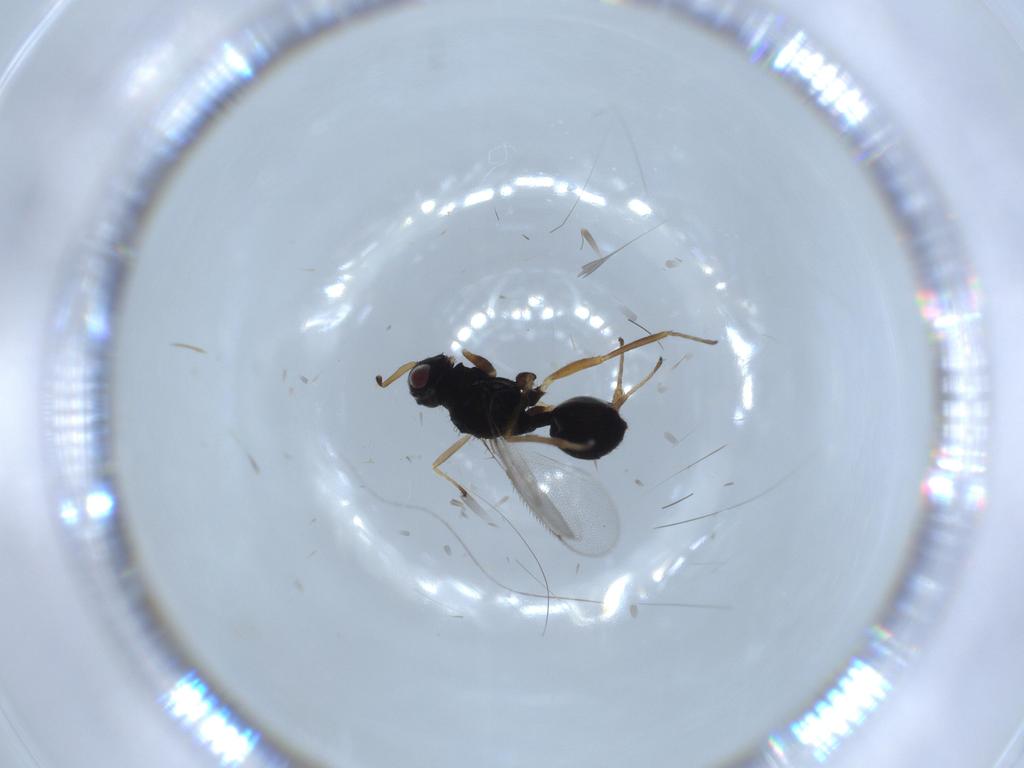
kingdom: Animalia
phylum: Arthropoda
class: Insecta
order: Hymenoptera
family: Eulophidae
